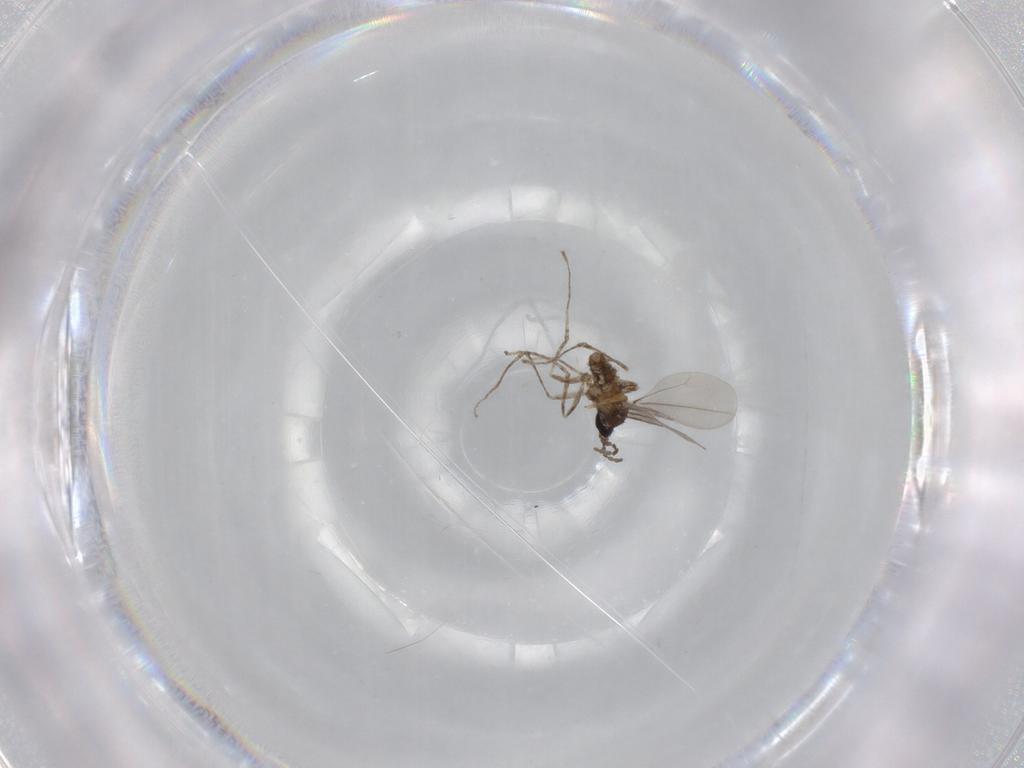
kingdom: Animalia
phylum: Arthropoda
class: Insecta
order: Diptera
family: Cecidomyiidae
